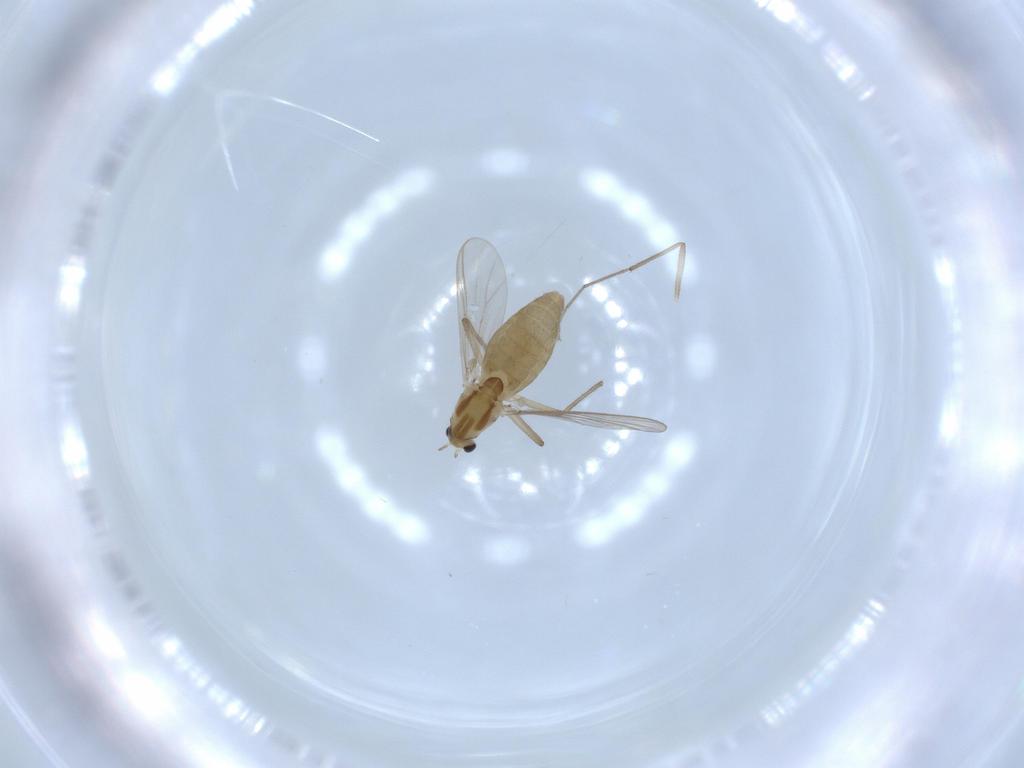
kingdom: Animalia
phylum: Arthropoda
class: Insecta
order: Diptera
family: Chironomidae
